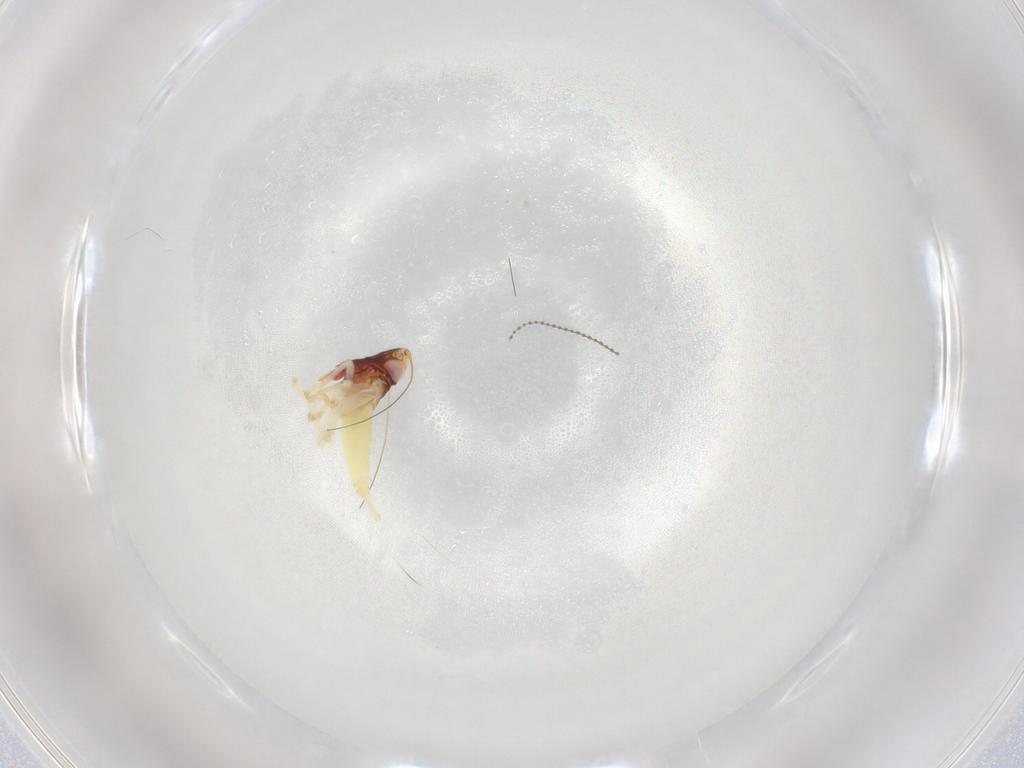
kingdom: Animalia
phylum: Arthropoda
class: Insecta
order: Hemiptera
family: Cicadellidae
